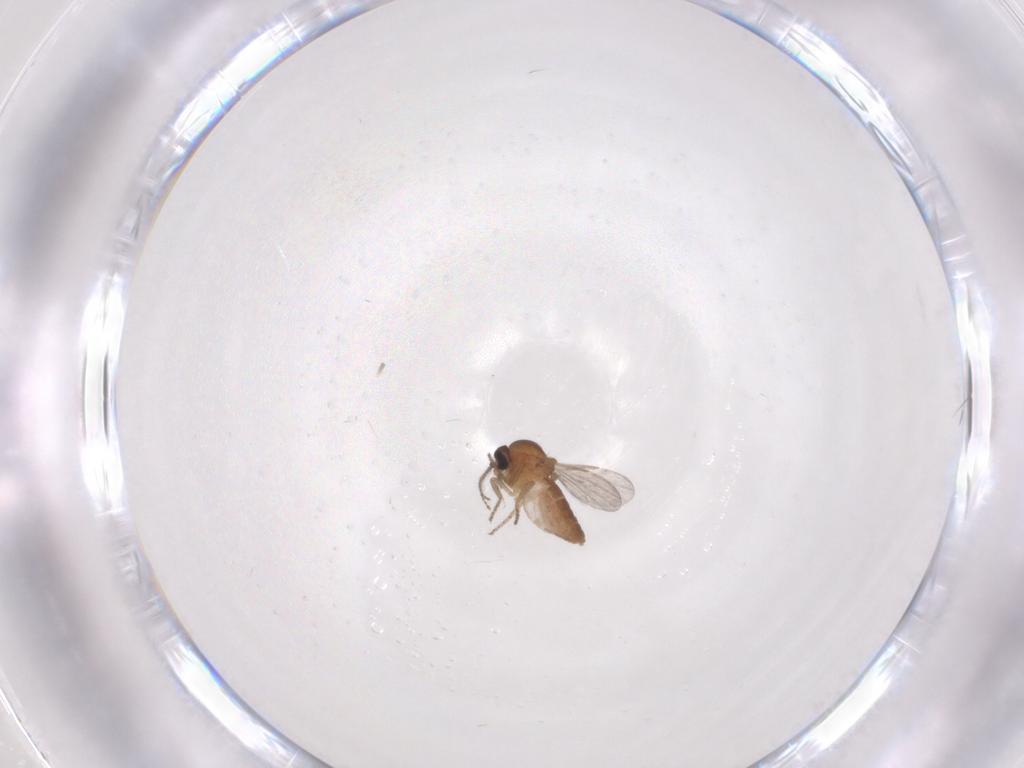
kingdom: Animalia
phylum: Arthropoda
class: Insecta
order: Diptera
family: Ceratopogonidae
